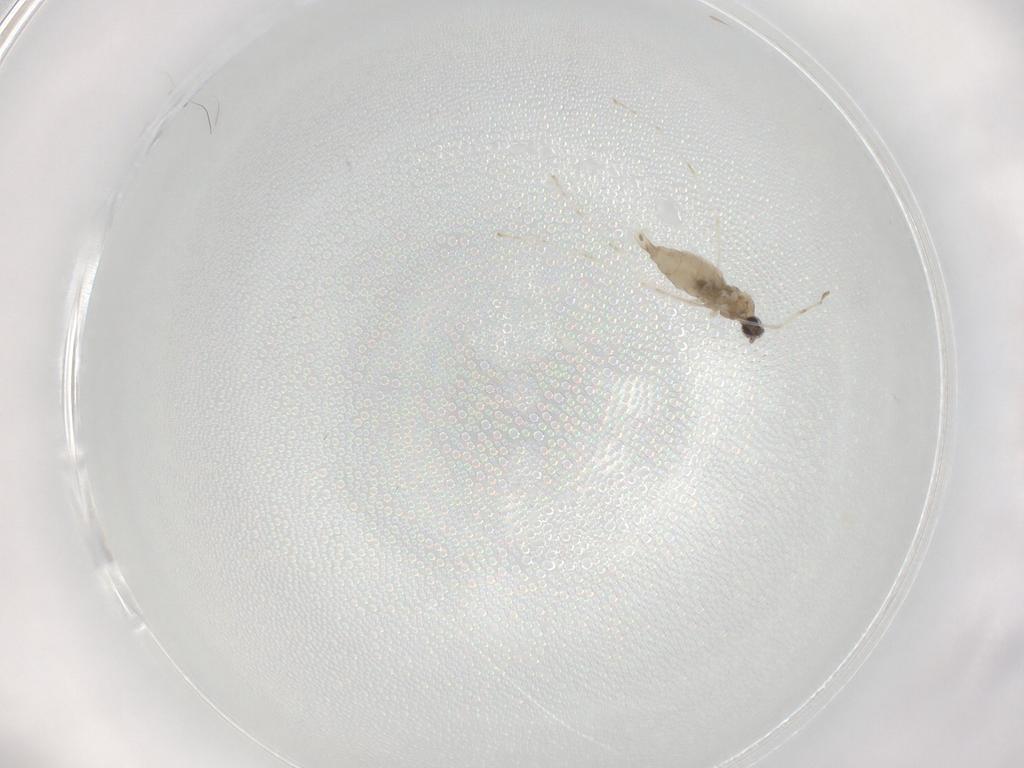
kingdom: Animalia
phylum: Arthropoda
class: Insecta
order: Diptera
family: Cecidomyiidae
